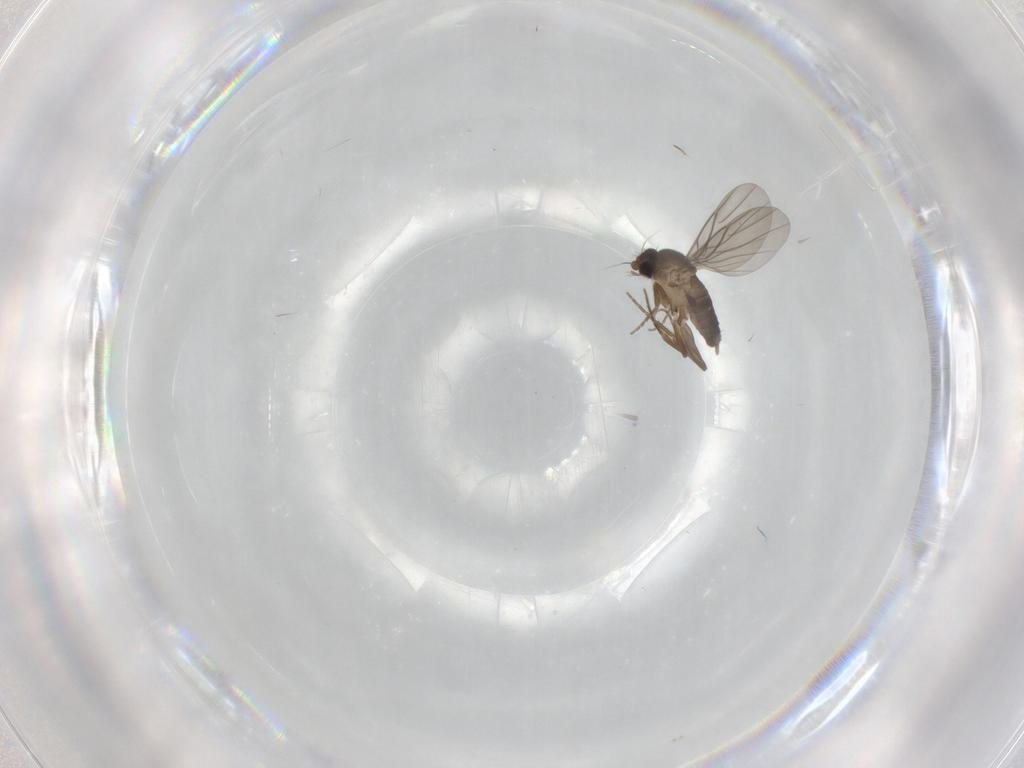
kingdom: Animalia
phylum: Arthropoda
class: Insecta
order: Diptera
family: Phoridae
